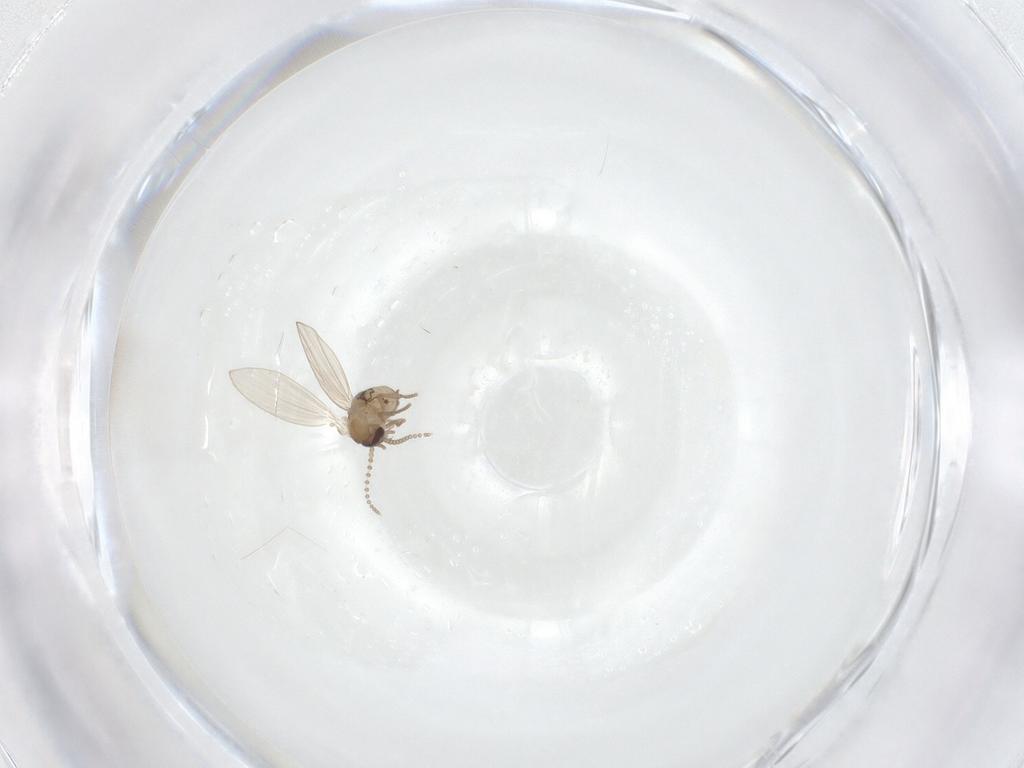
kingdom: Animalia
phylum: Arthropoda
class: Insecta
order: Diptera
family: Psychodidae
